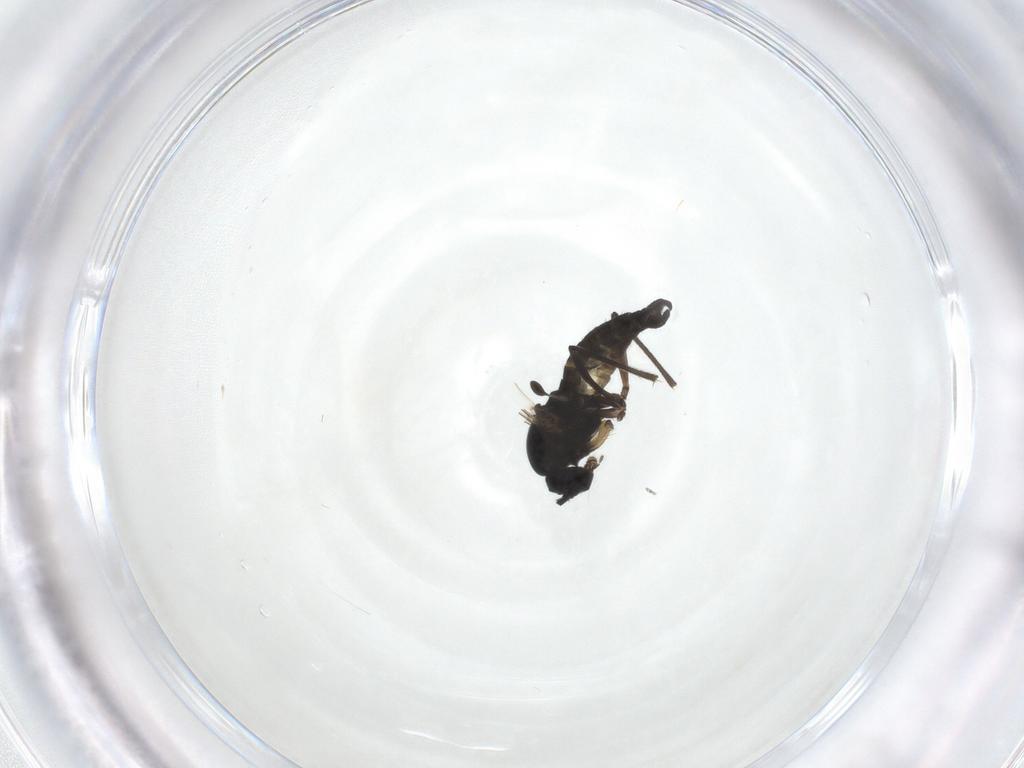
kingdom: Animalia
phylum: Arthropoda
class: Insecta
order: Diptera
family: Sciaridae
